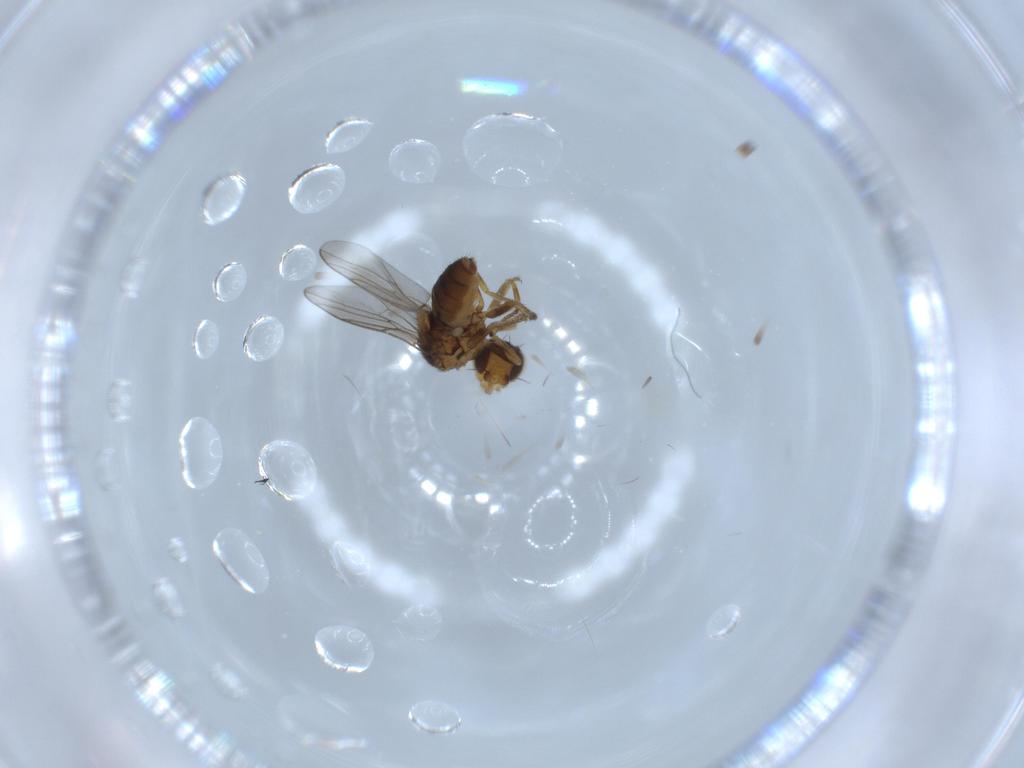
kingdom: Animalia
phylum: Arthropoda
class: Insecta
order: Diptera
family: Chloropidae
